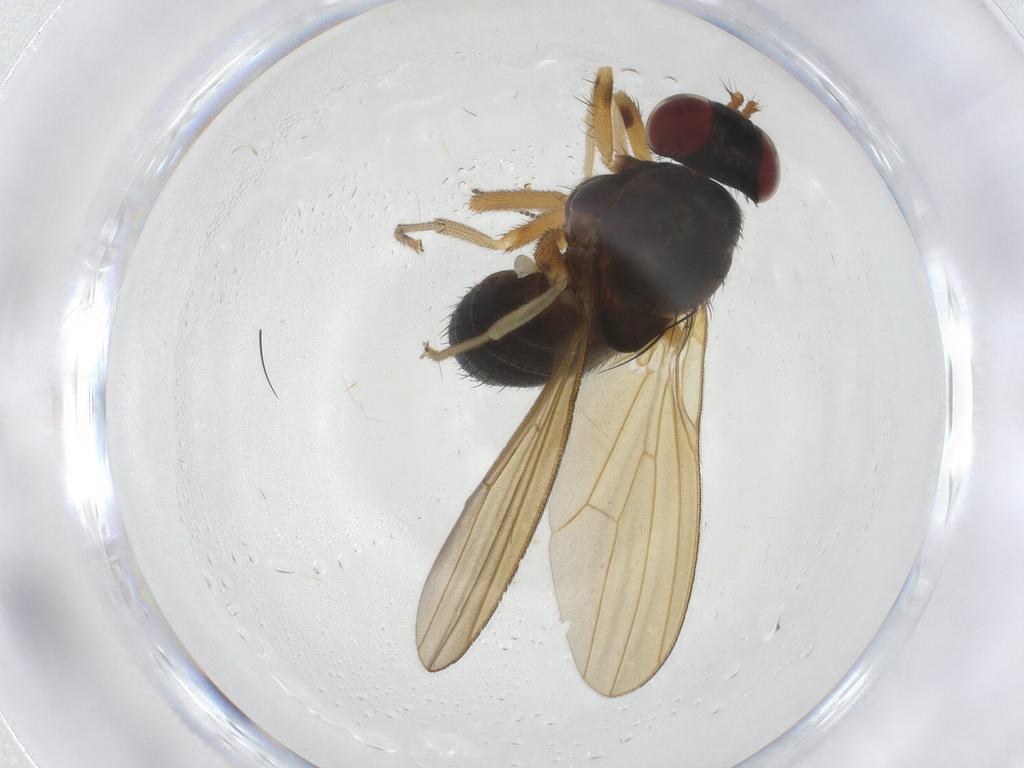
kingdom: Animalia
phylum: Arthropoda
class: Insecta
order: Diptera
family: Cecidomyiidae
